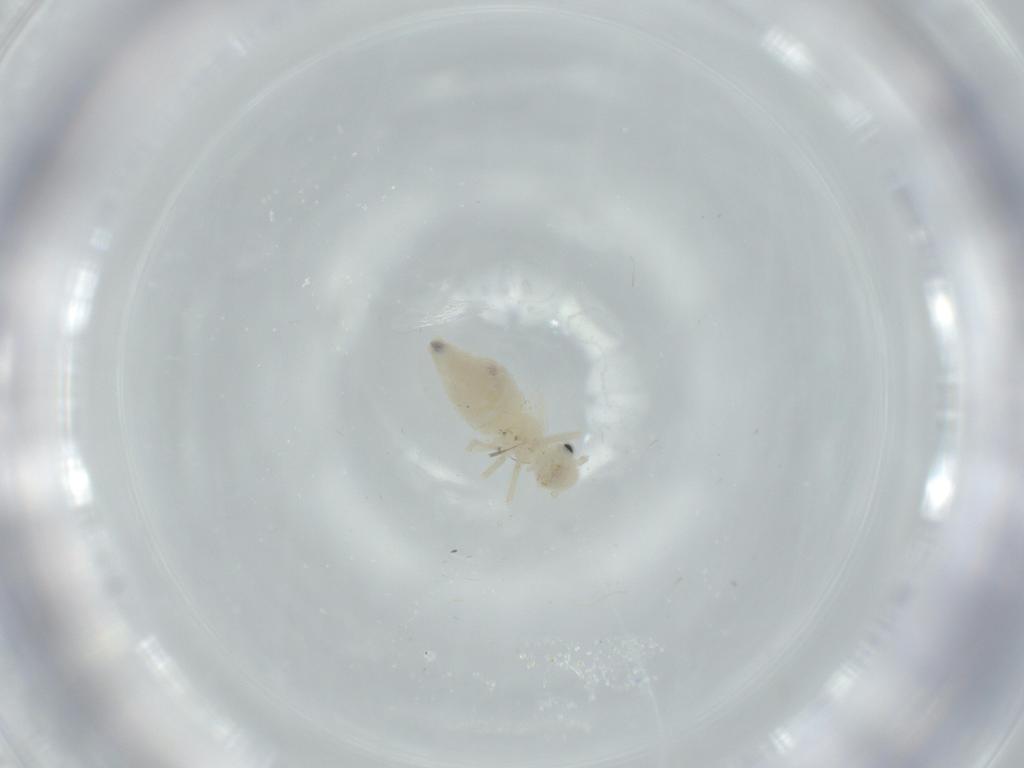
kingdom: Animalia
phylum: Arthropoda
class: Insecta
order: Psocodea
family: Caeciliusidae
